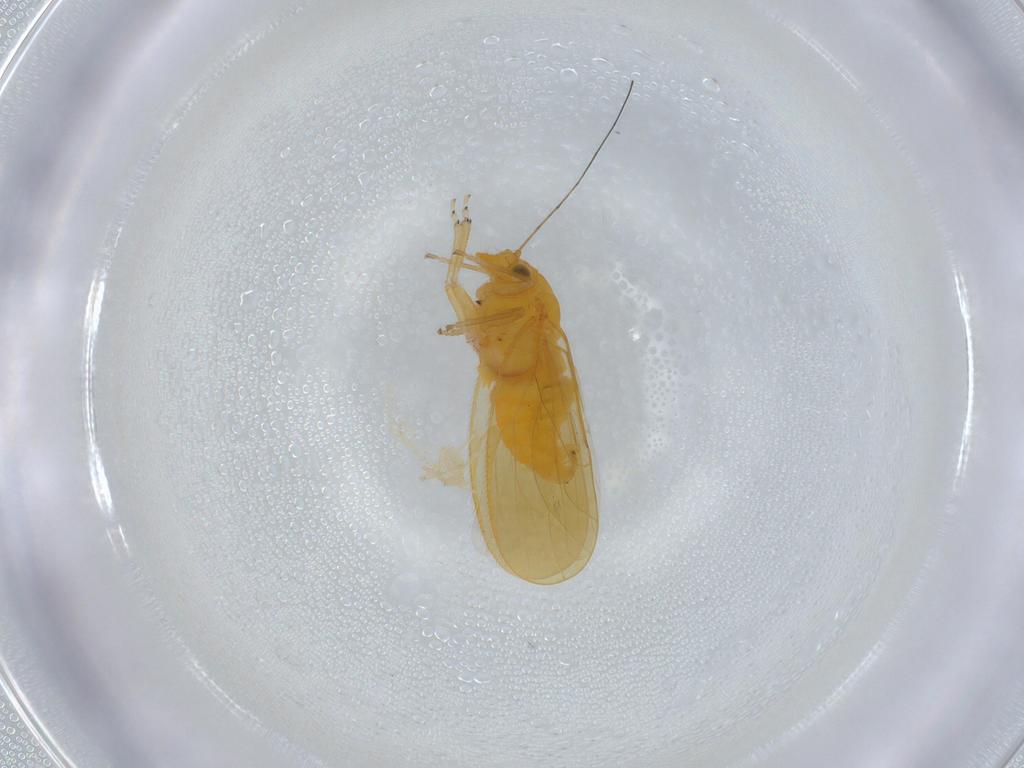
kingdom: Animalia
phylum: Arthropoda
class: Insecta
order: Hemiptera
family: Psyllidae
